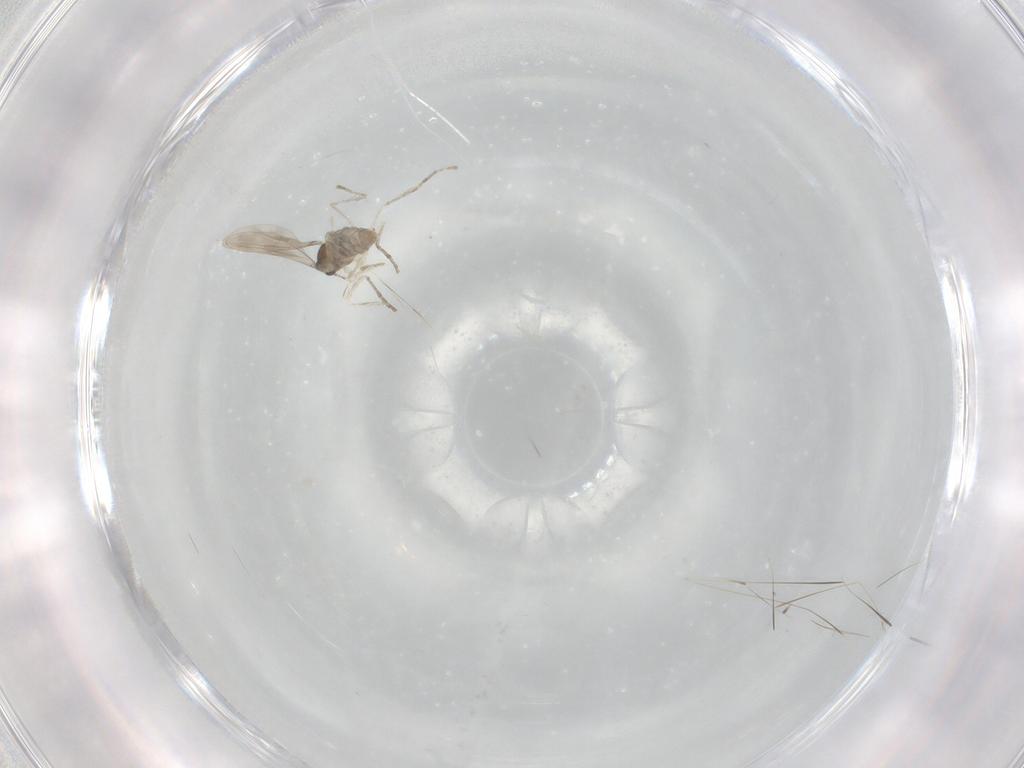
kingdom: Animalia
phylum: Arthropoda
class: Insecta
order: Diptera
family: Cecidomyiidae
